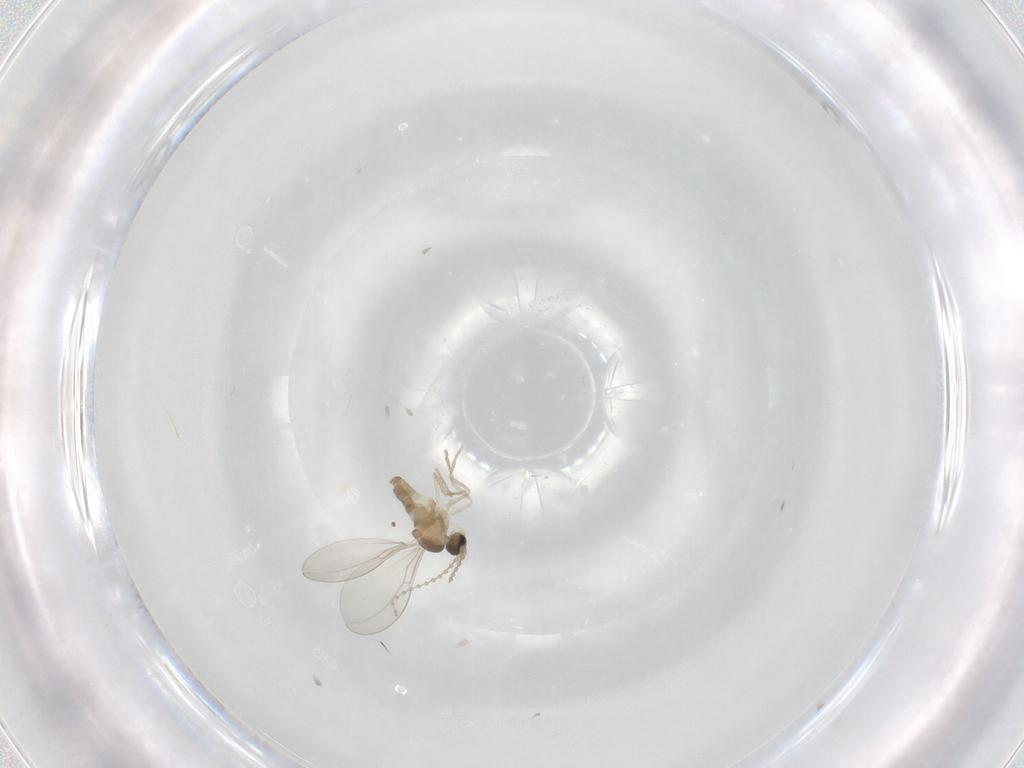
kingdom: Animalia
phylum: Arthropoda
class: Insecta
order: Diptera
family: Cecidomyiidae
